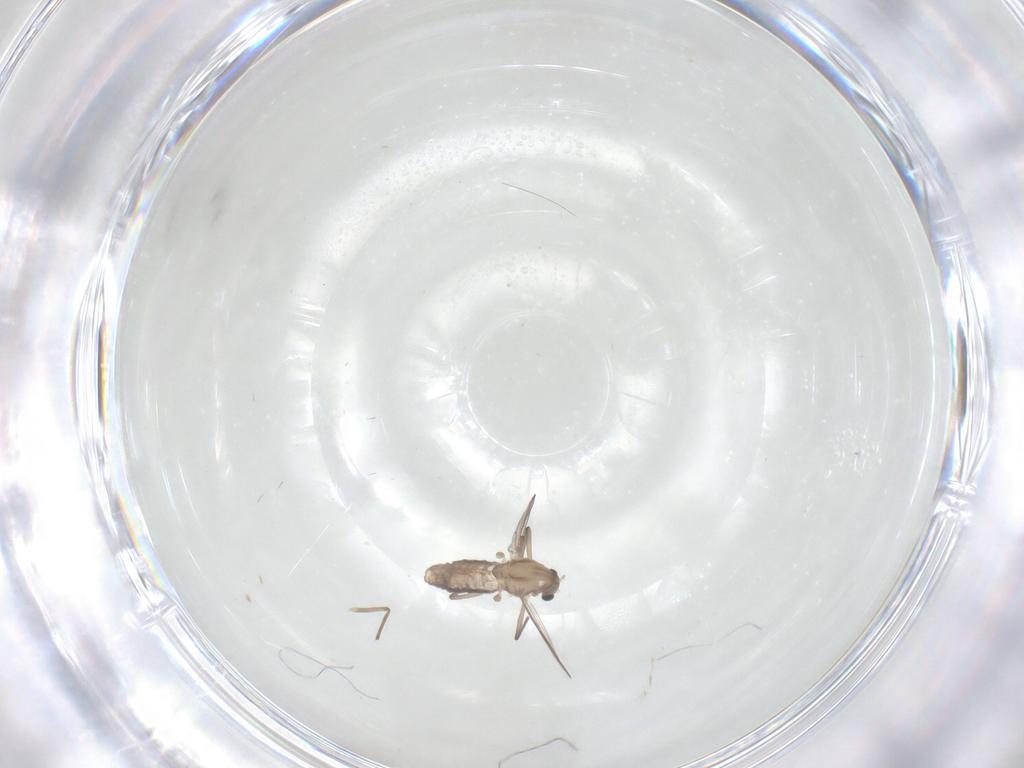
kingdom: Animalia
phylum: Arthropoda
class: Insecta
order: Diptera
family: Chironomidae
